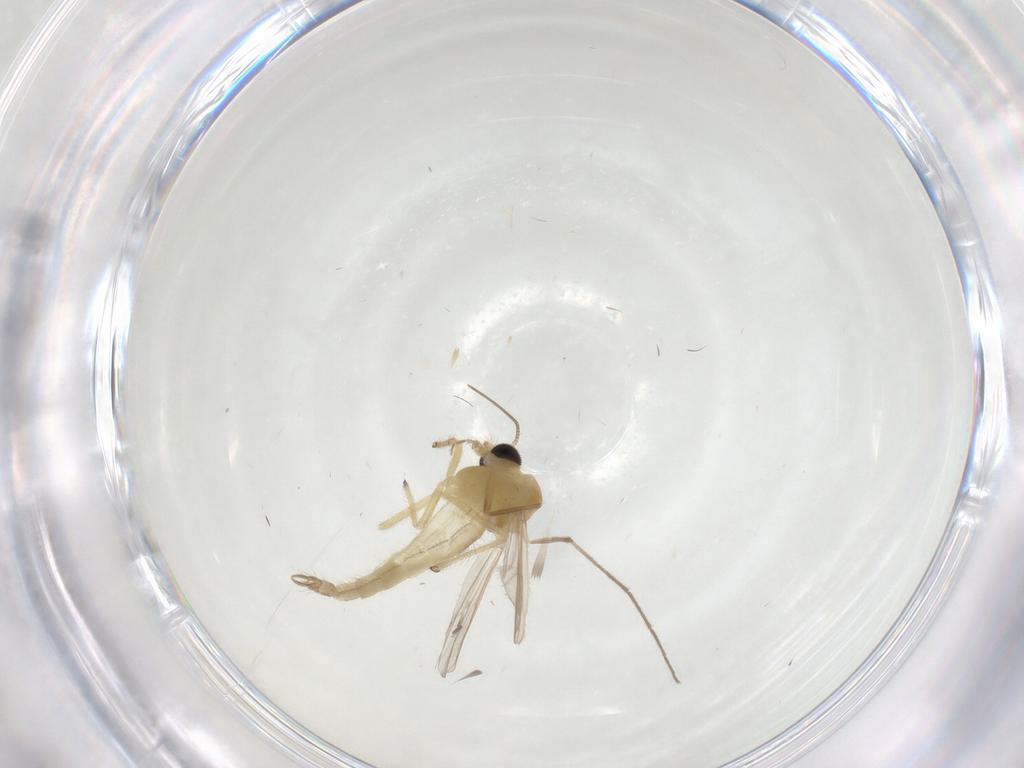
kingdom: Animalia
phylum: Arthropoda
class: Insecta
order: Diptera
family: Chironomidae
